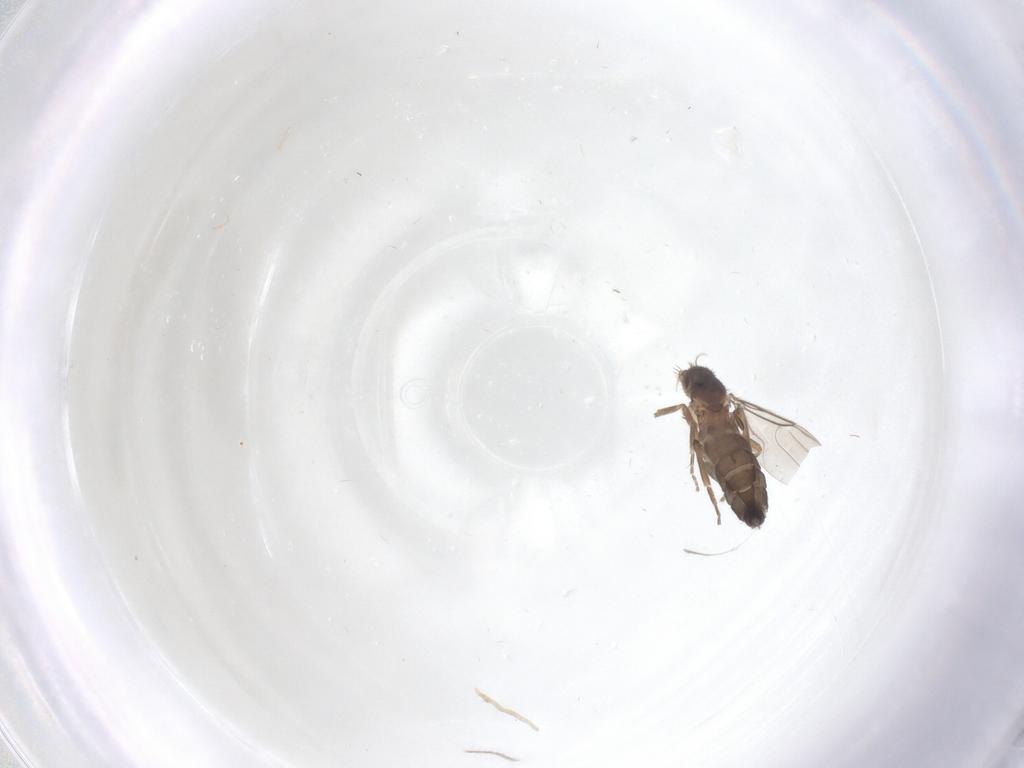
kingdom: Animalia
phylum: Arthropoda
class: Insecta
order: Diptera
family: Phoridae
